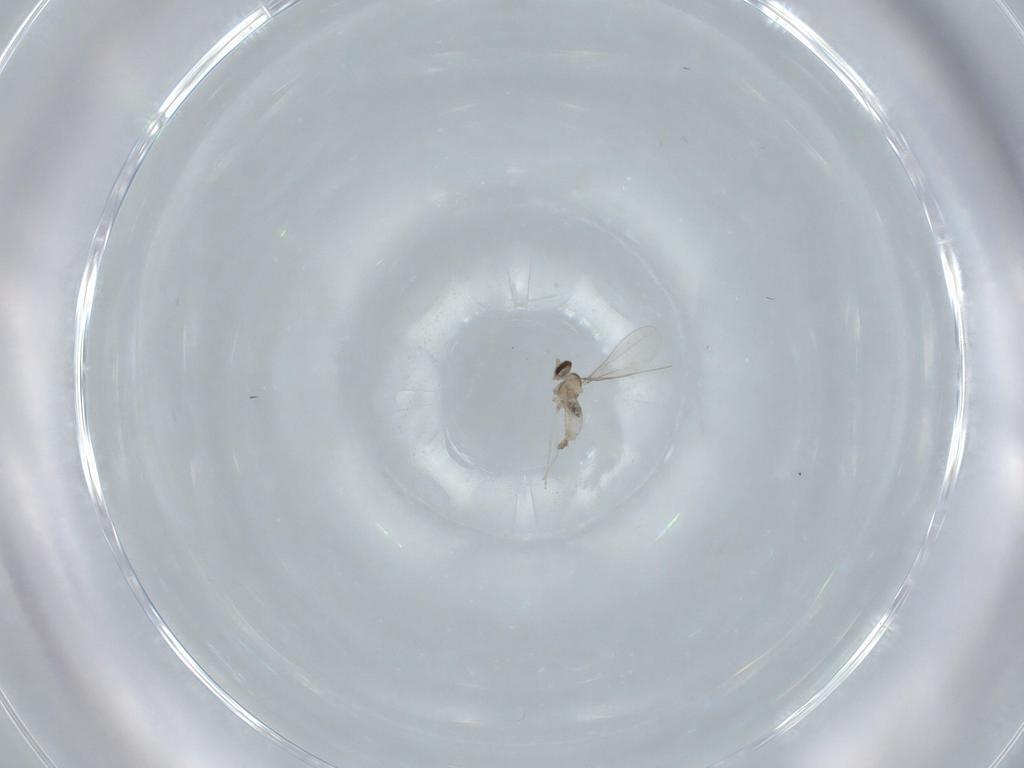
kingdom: Animalia
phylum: Arthropoda
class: Insecta
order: Diptera
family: Cecidomyiidae
